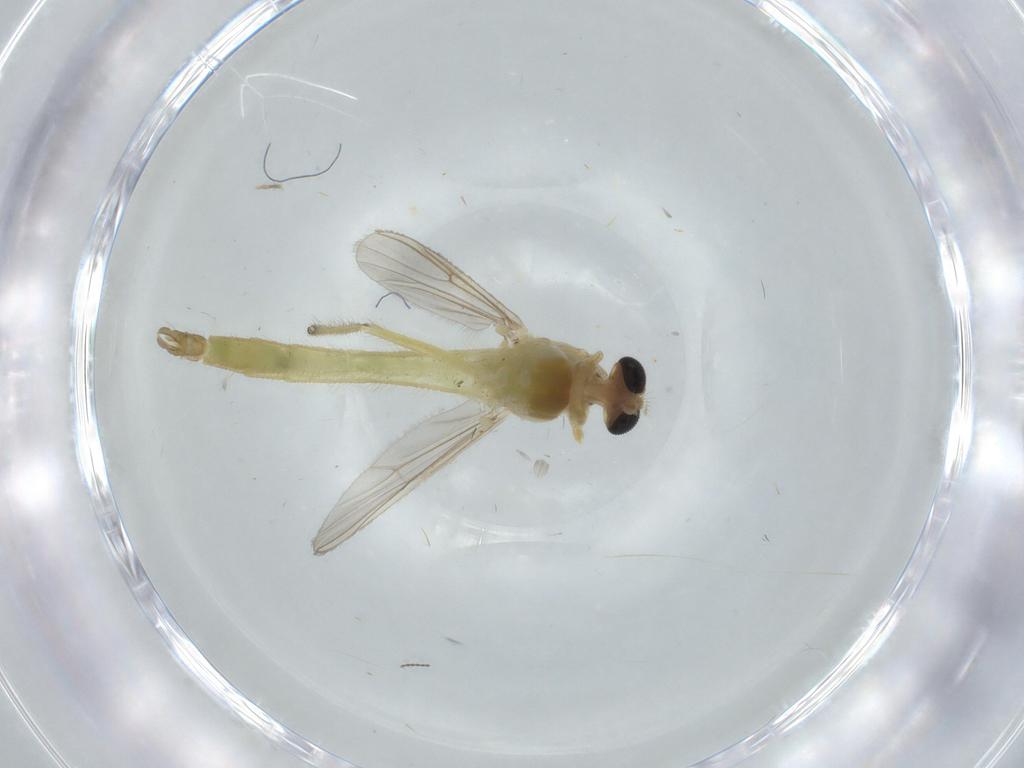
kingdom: Animalia
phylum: Arthropoda
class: Insecta
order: Diptera
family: Chironomidae
